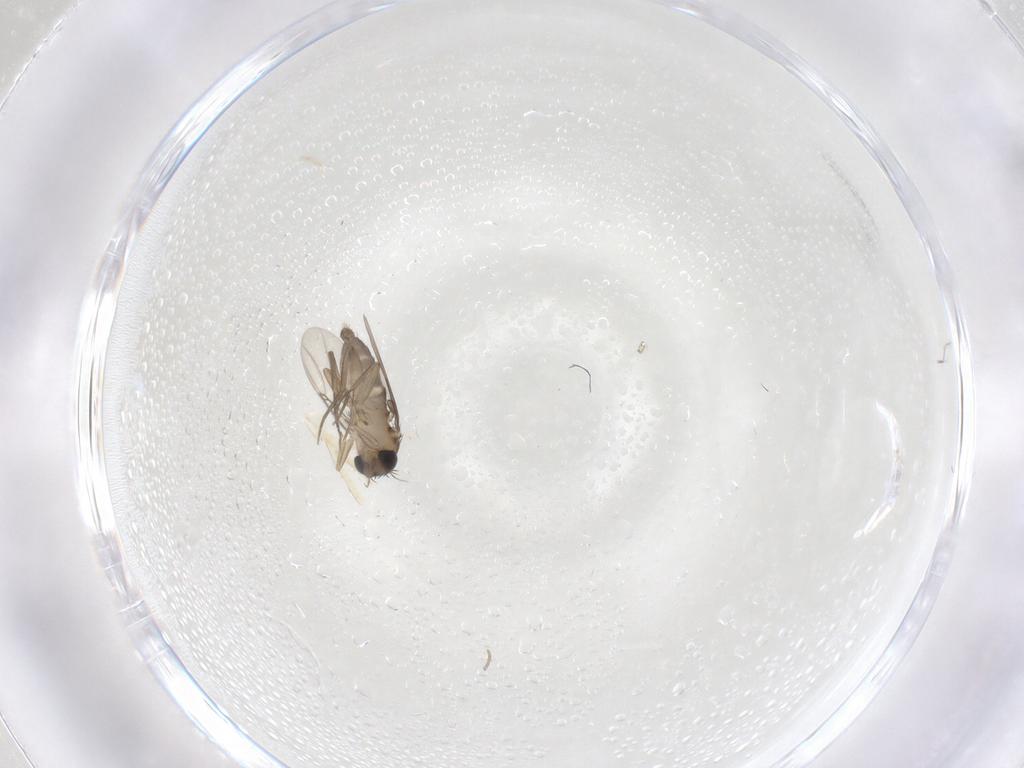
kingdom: Animalia
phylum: Arthropoda
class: Insecta
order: Diptera
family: Phoridae
